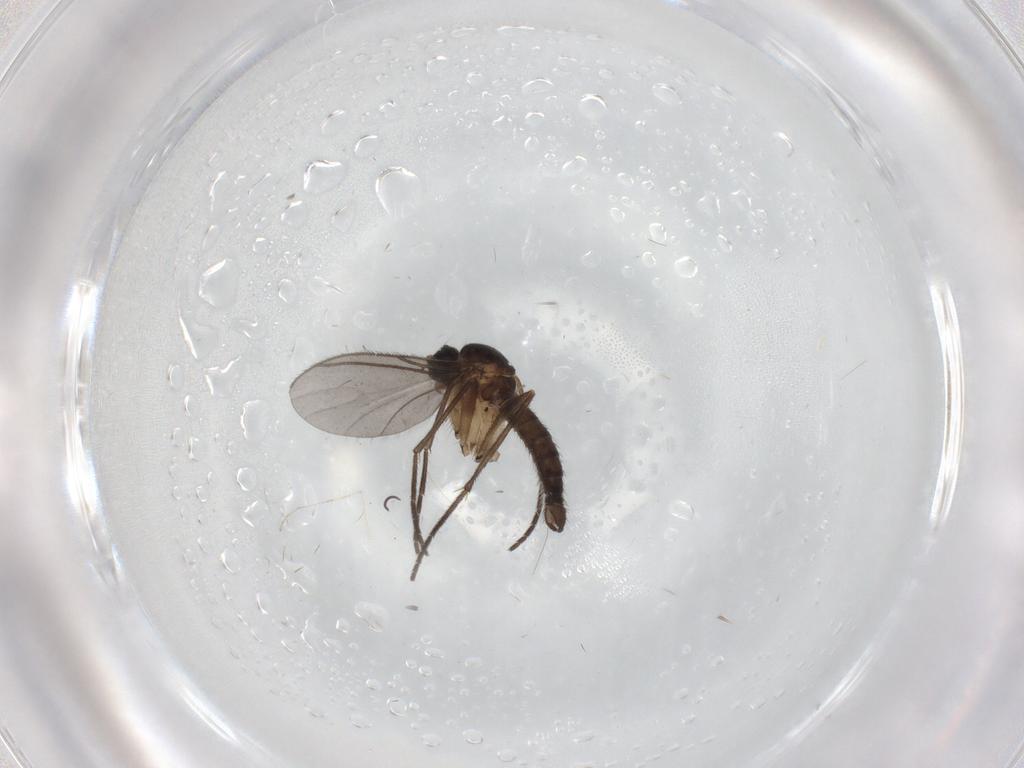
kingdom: Animalia
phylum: Arthropoda
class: Insecta
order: Diptera
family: Sciaridae
